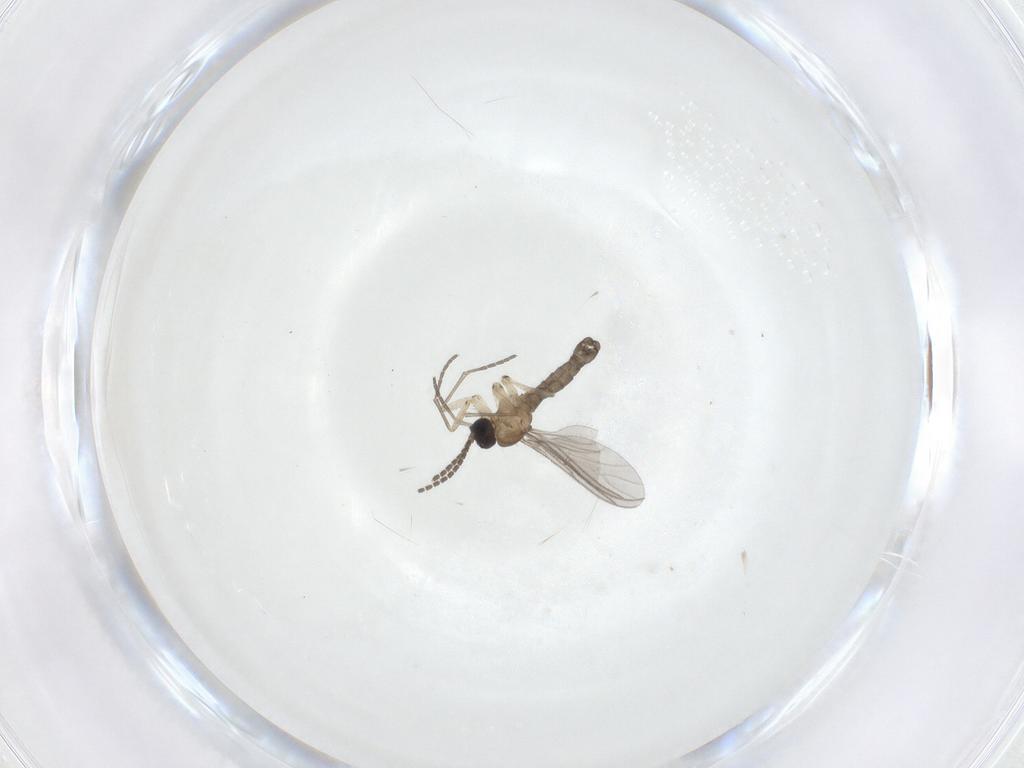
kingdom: Animalia
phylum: Arthropoda
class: Insecta
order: Diptera
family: Sciaridae
